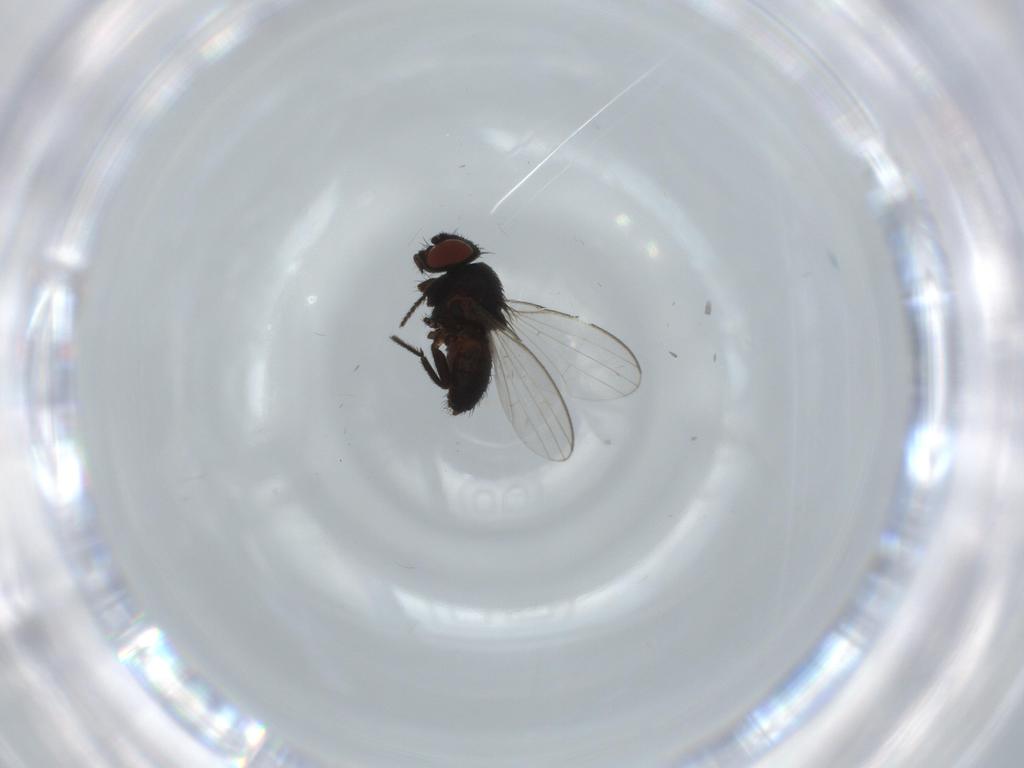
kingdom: Animalia
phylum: Arthropoda
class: Insecta
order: Diptera
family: Milichiidae
